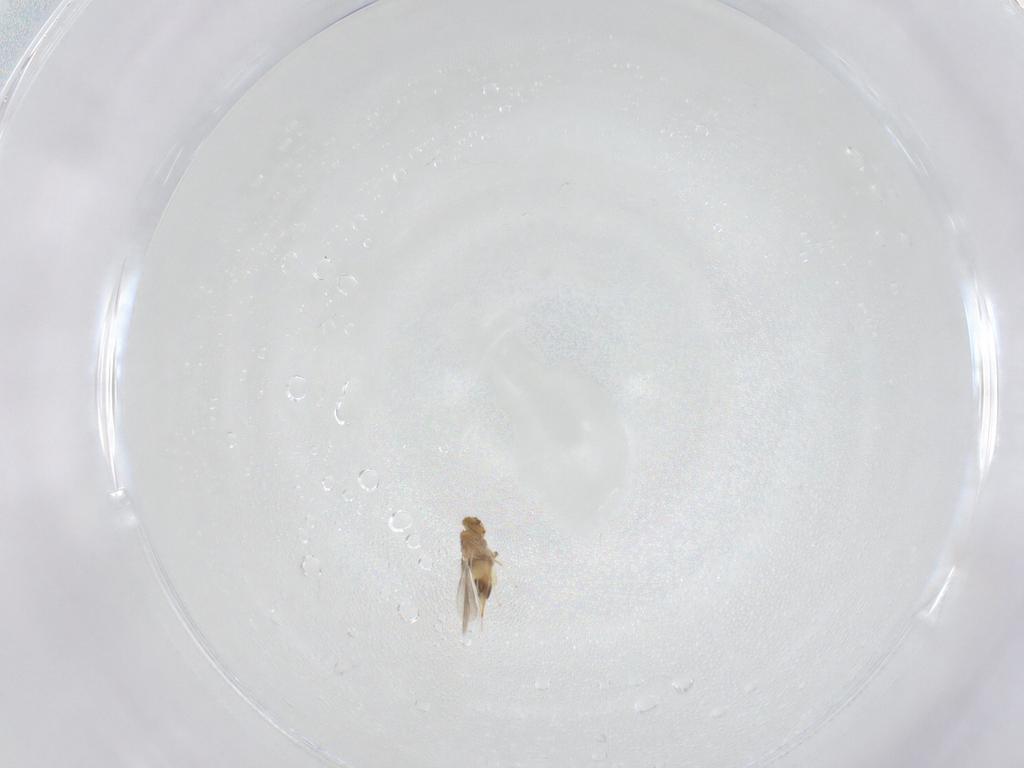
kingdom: Animalia
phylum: Arthropoda
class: Insecta
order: Hymenoptera
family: Aphelinidae
